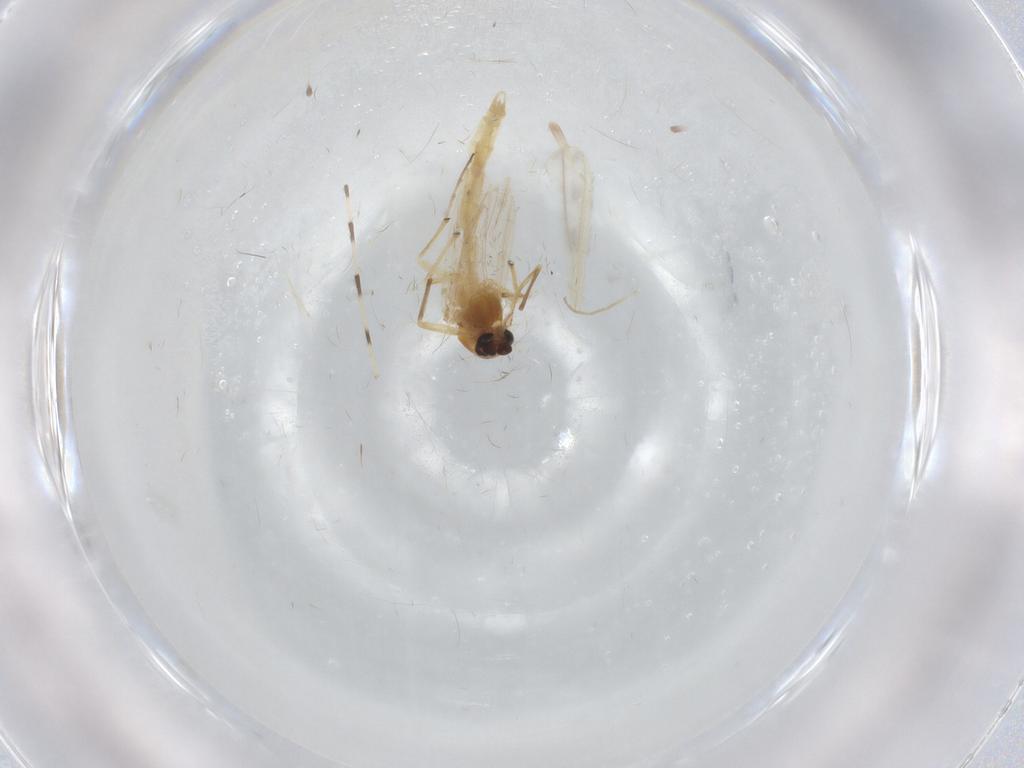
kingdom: Animalia
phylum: Arthropoda
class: Insecta
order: Diptera
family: Chironomidae
